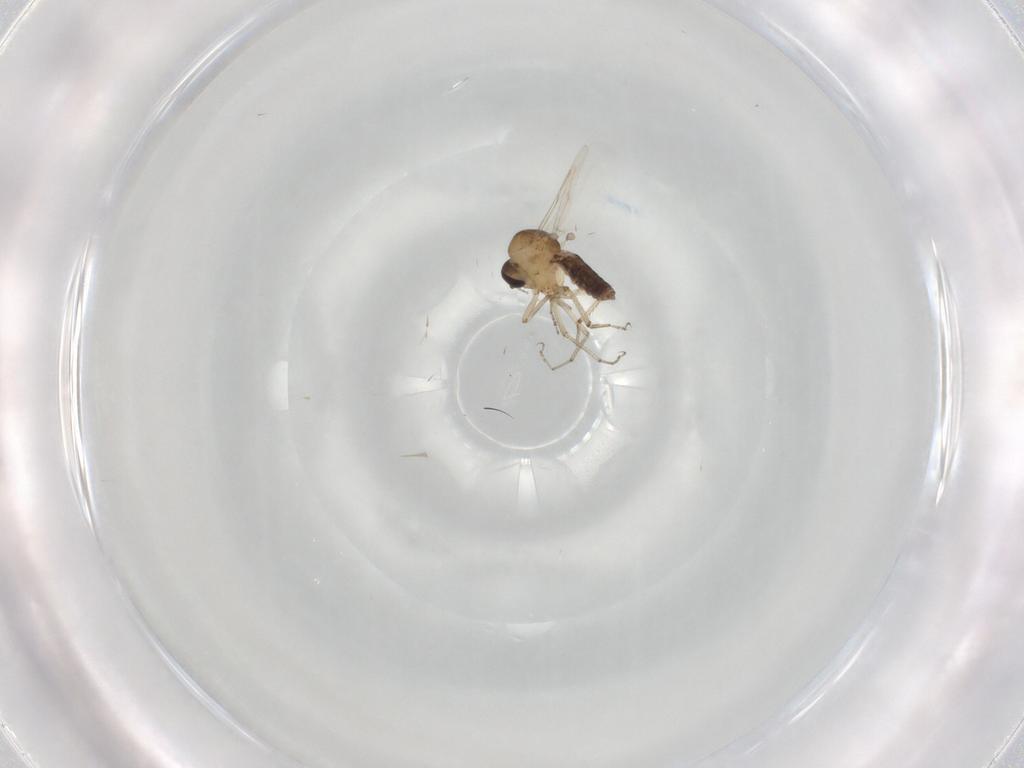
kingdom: Animalia
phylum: Arthropoda
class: Insecta
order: Diptera
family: Ceratopogonidae
